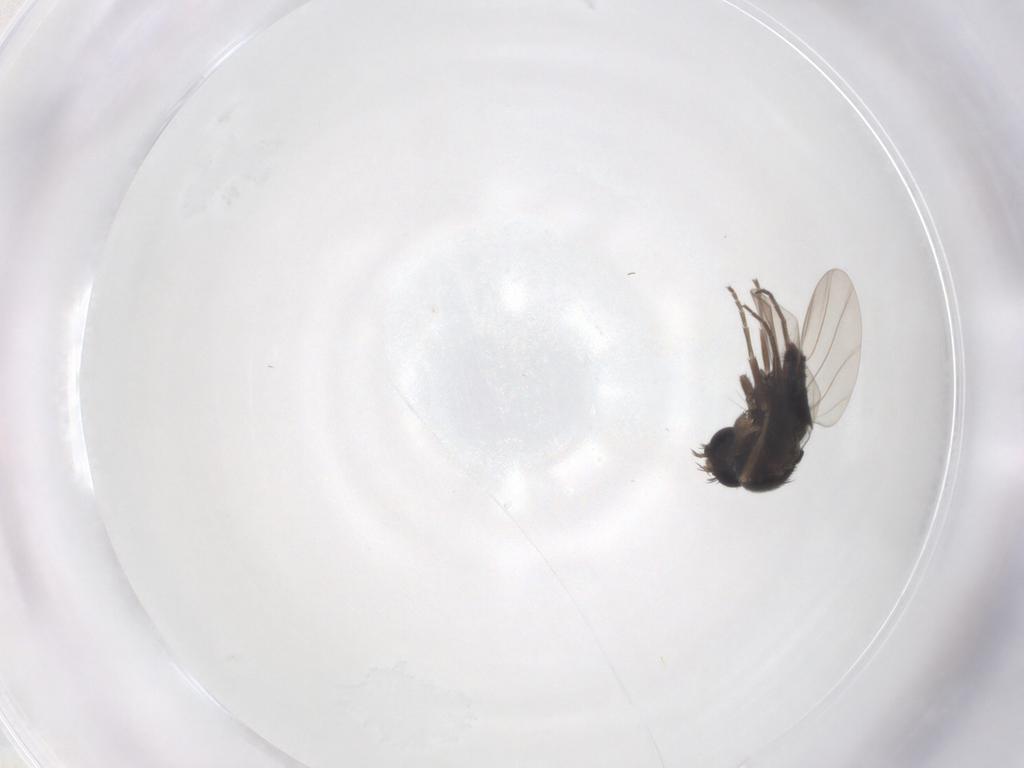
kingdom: Animalia
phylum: Arthropoda
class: Insecta
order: Diptera
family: Phoridae
